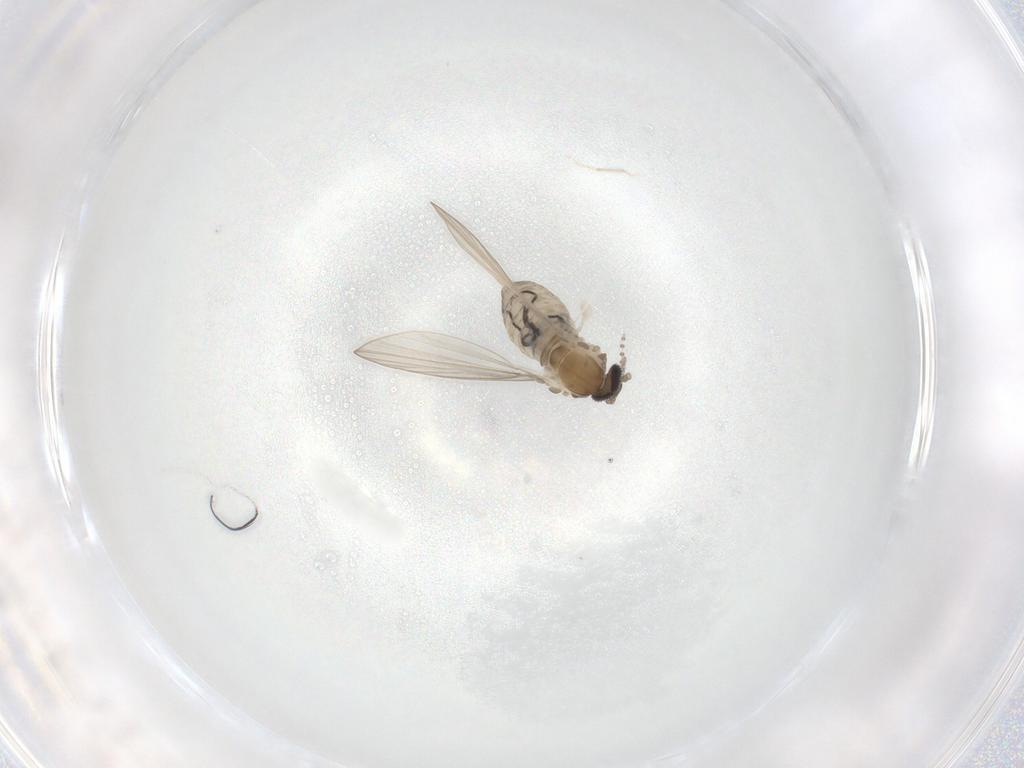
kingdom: Animalia
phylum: Arthropoda
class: Insecta
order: Diptera
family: Psychodidae
